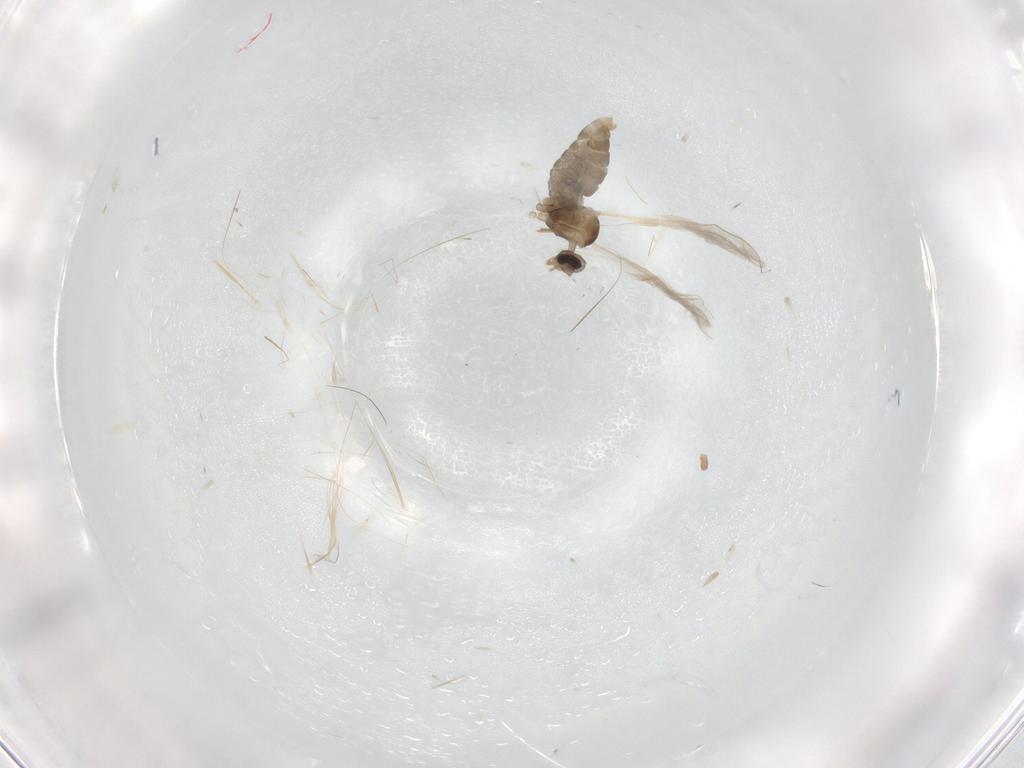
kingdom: Animalia
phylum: Arthropoda
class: Insecta
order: Diptera
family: Cecidomyiidae
